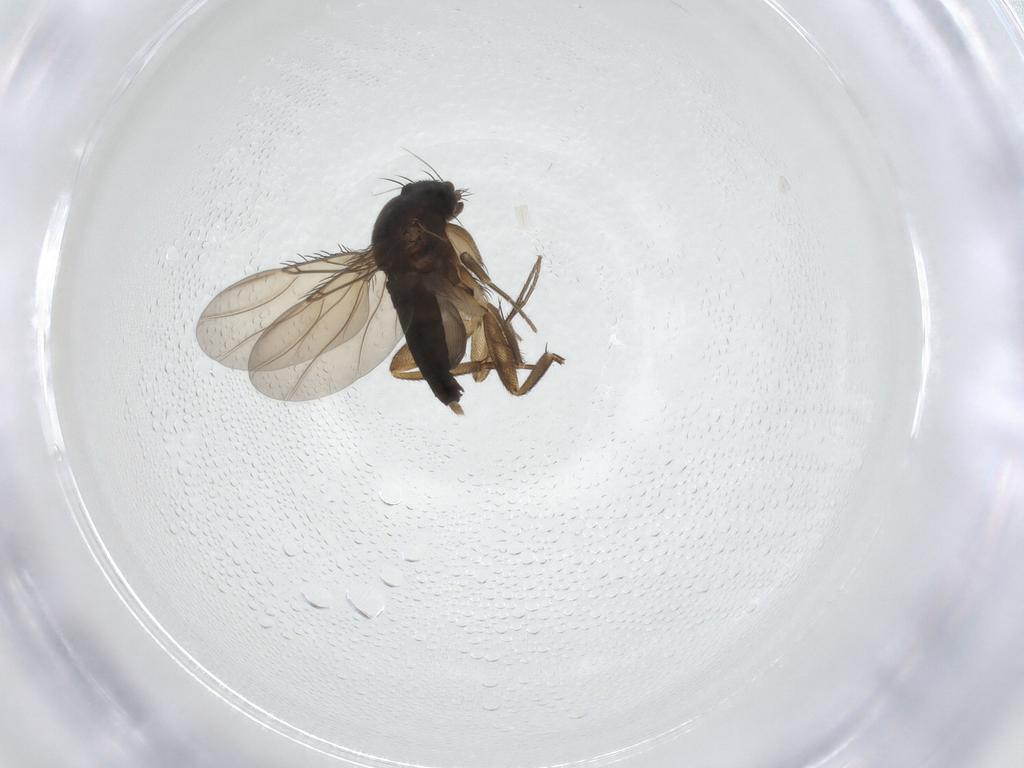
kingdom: Animalia
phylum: Arthropoda
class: Insecta
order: Diptera
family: Phoridae
